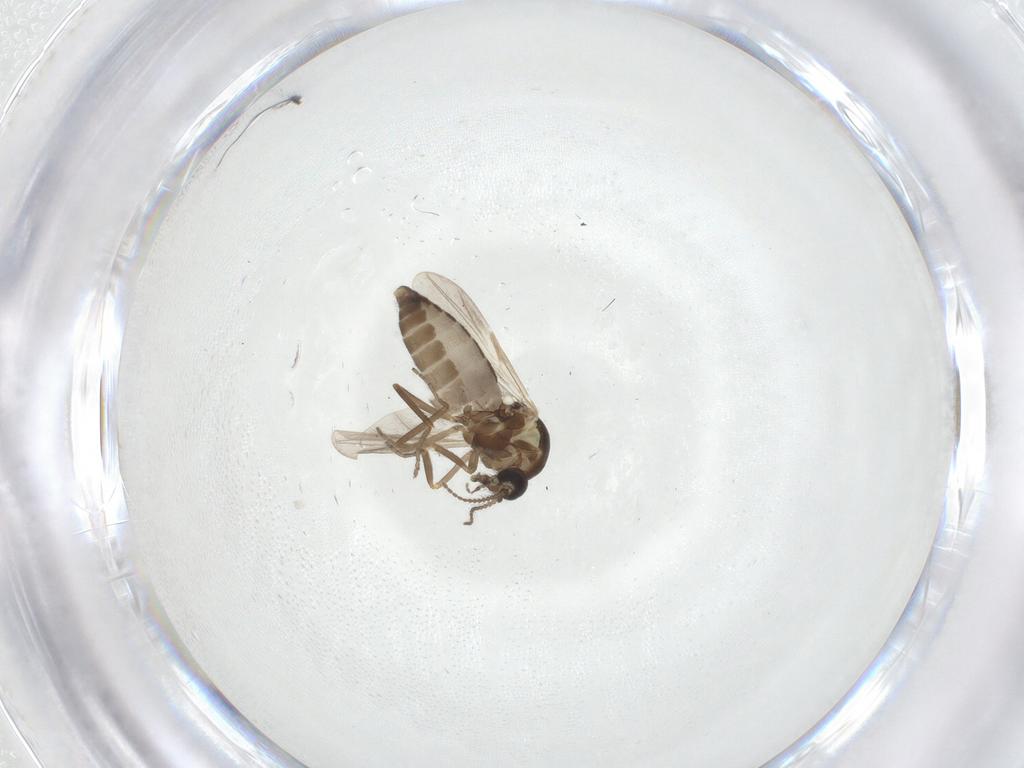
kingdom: Animalia
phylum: Arthropoda
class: Insecta
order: Diptera
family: Ceratopogonidae
